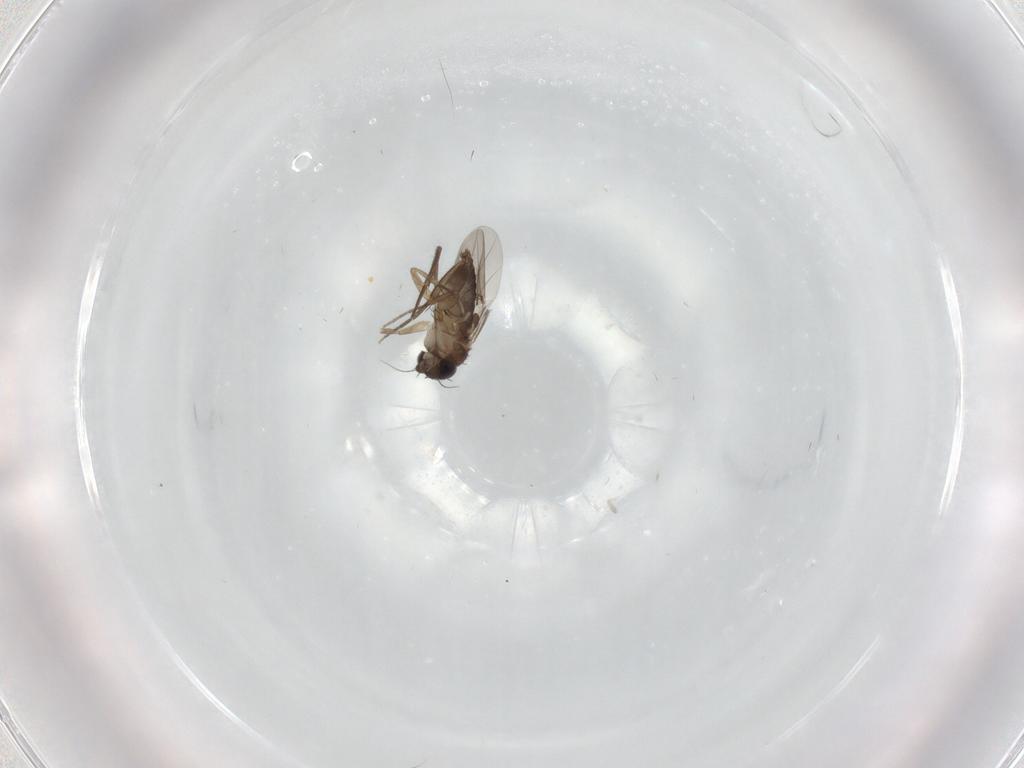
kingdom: Animalia
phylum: Arthropoda
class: Insecta
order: Diptera
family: Phoridae
